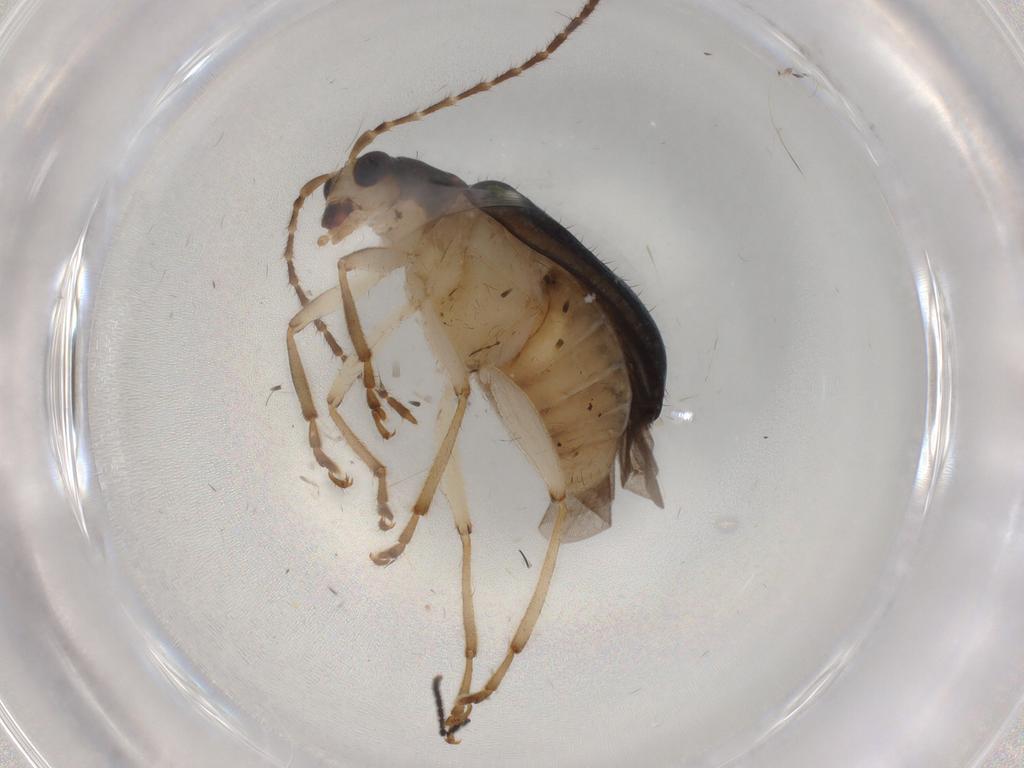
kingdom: Animalia
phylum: Arthropoda
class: Insecta
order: Coleoptera
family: Chrysomelidae
